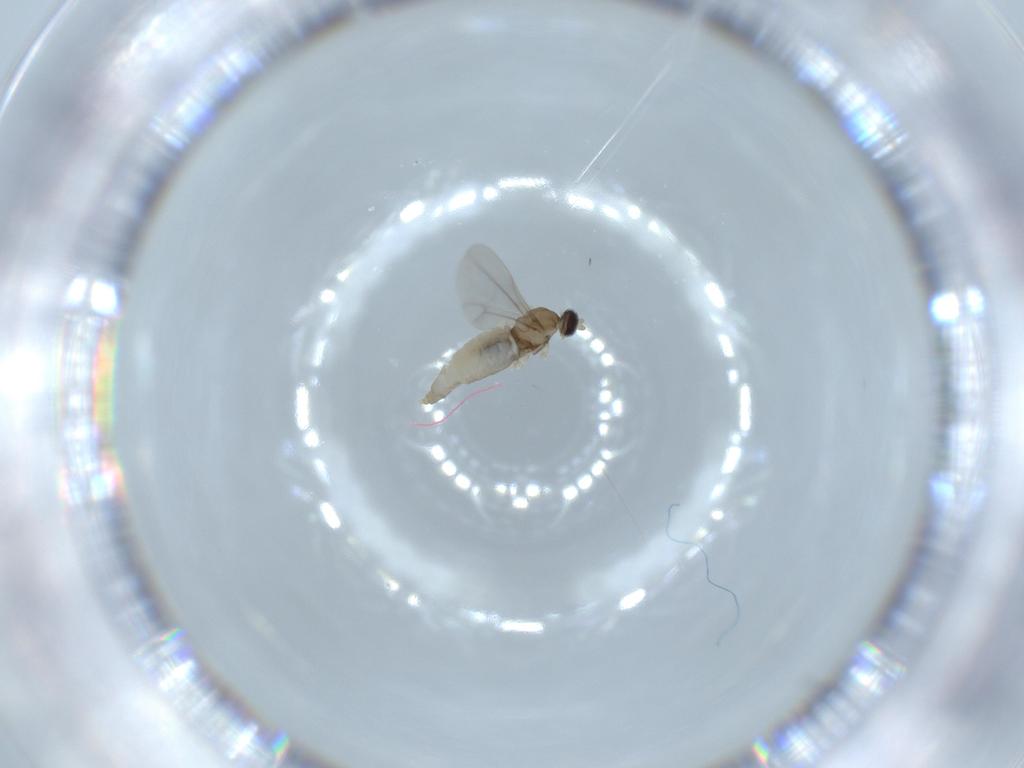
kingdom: Animalia
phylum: Arthropoda
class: Insecta
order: Diptera
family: Cecidomyiidae
